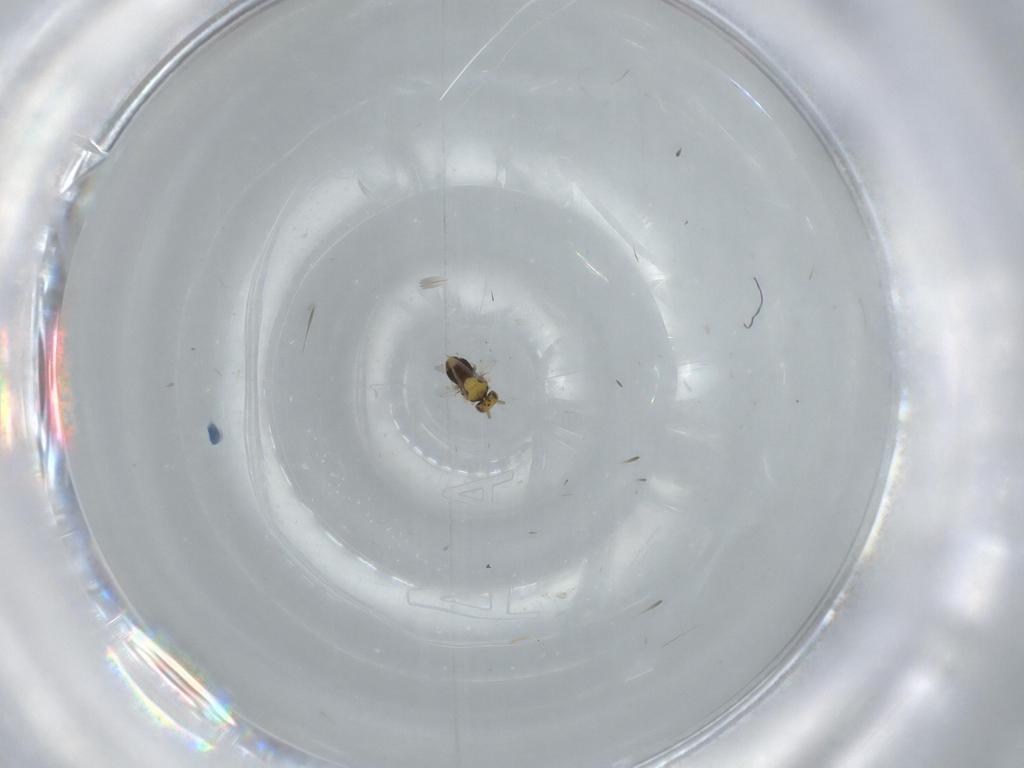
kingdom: Animalia
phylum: Arthropoda
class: Insecta
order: Hymenoptera
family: Aphelinidae
